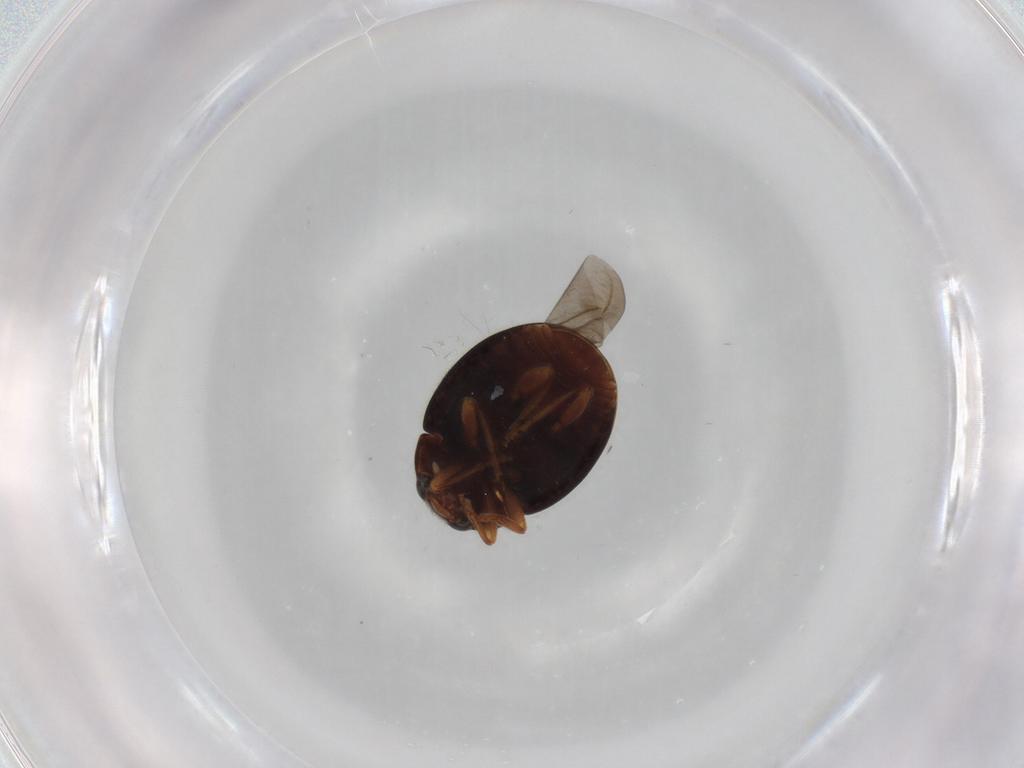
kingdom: Animalia
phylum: Arthropoda
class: Insecta
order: Coleoptera
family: Coccinellidae
